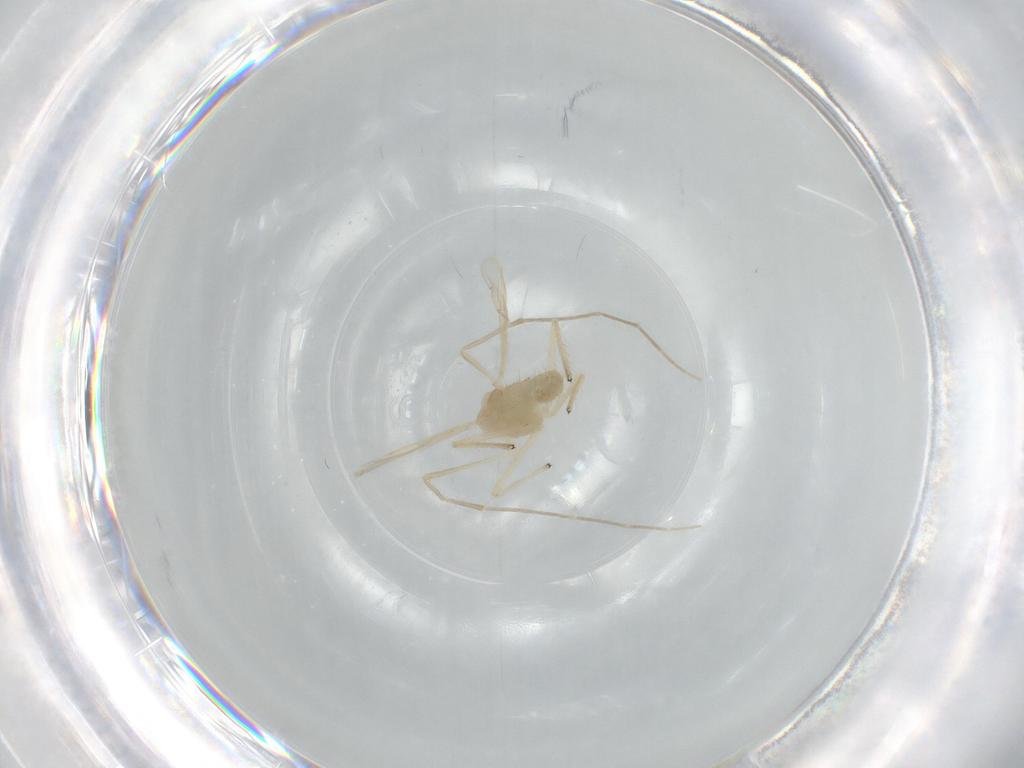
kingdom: Animalia
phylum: Arthropoda
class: Insecta
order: Diptera
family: Chironomidae
